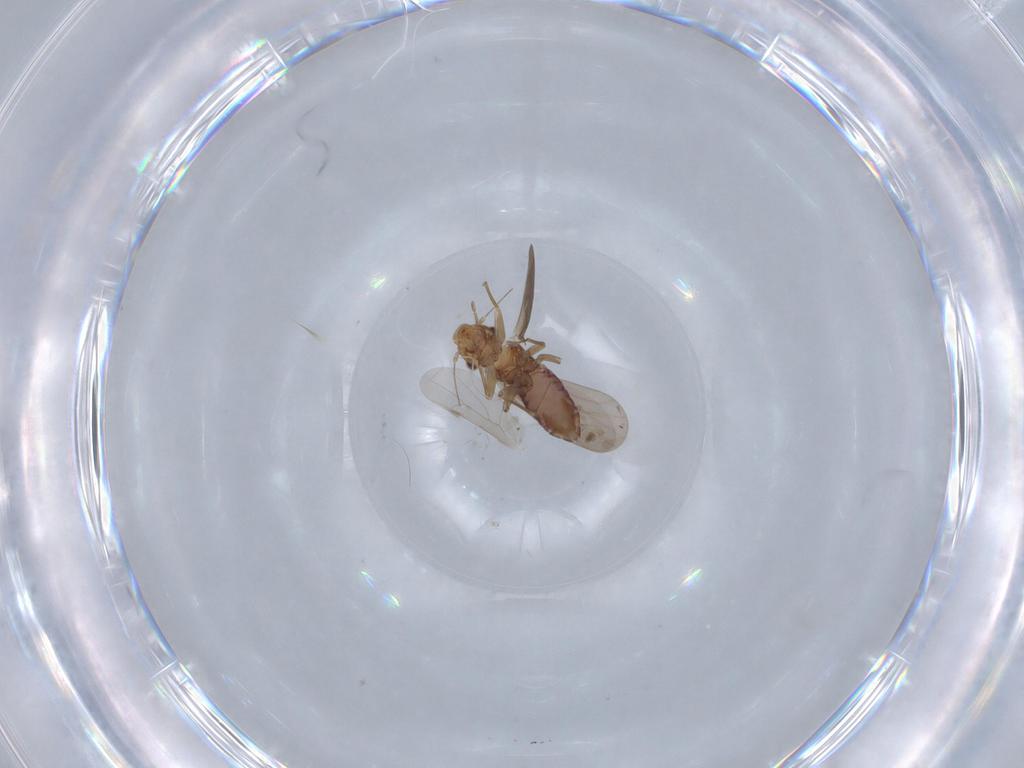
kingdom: Animalia
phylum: Arthropoda
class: Insecta
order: Psocodea
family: Lepidopsocidae
